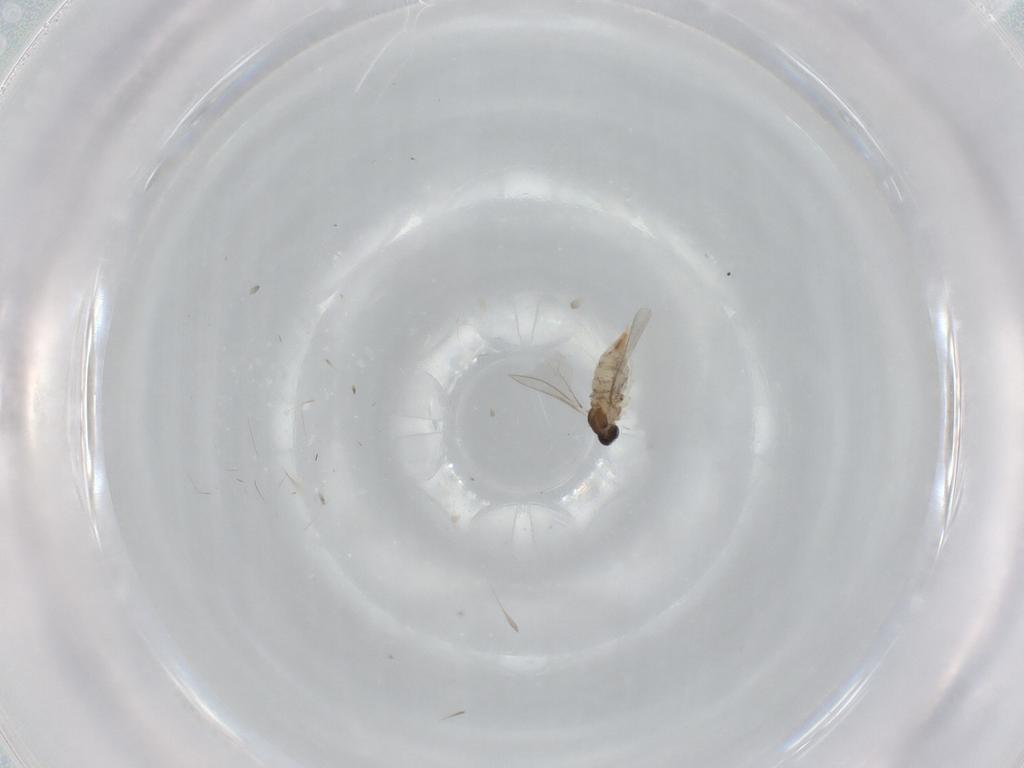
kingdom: Animalia
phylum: Arthropoda
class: Insecta
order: Diptera
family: Cecidomyiidae
